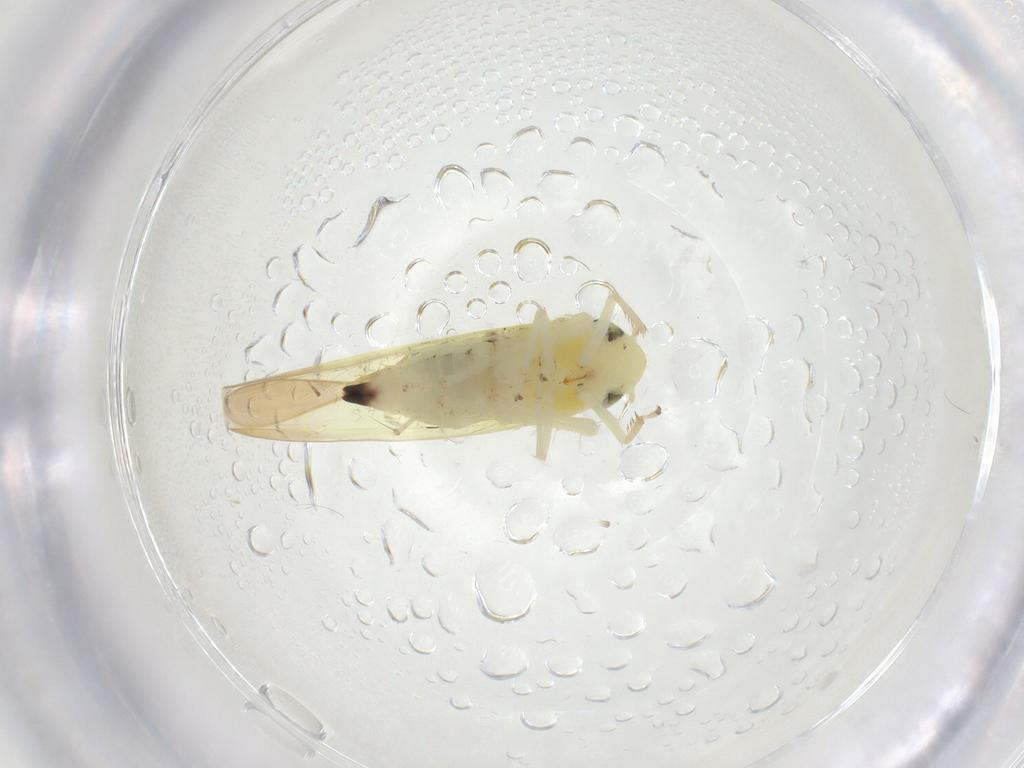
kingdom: Animalia
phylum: Arthropoda
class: Insecta
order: Hemiptera
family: Cicadellidae
